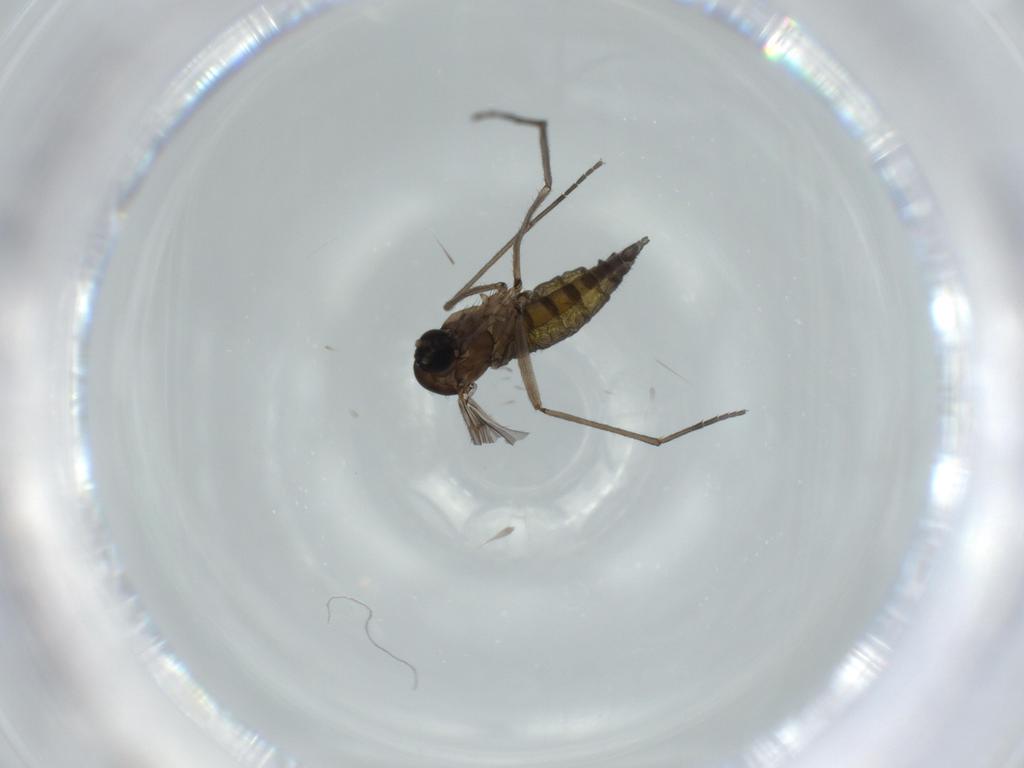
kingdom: Animalia
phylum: Arthropoda
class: Insecta
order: Diptera
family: Sciaridae
